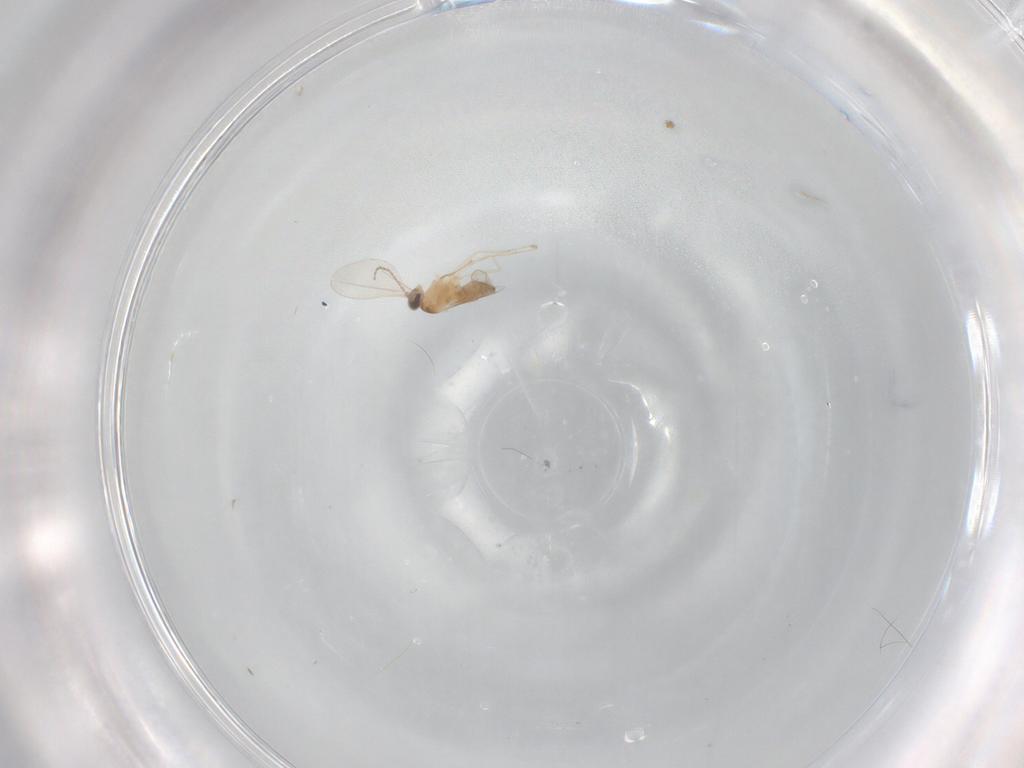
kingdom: Animalia
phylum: Arthropoda
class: Insecta
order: Diptera
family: Cecidomyiidae
